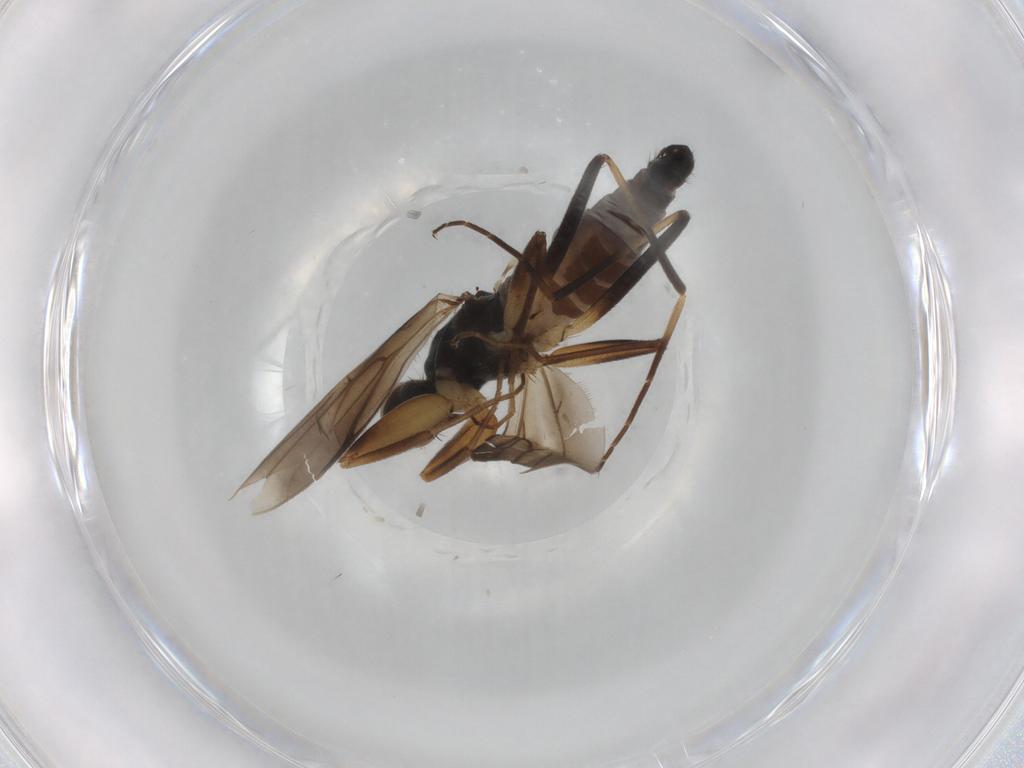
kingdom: Animalia
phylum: Arthropoda
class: Insecta
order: Diptera
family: Hybotidae
